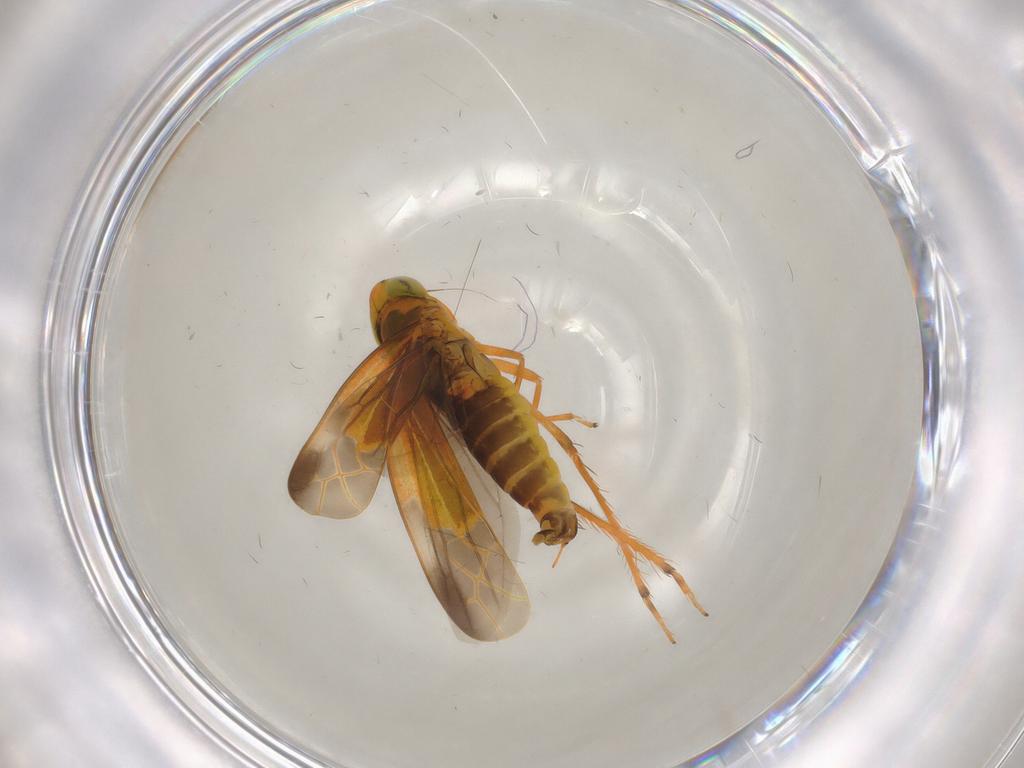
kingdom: Animalia
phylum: Arthropoda
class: Insecta
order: Hemiptera
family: Cicadellidae
